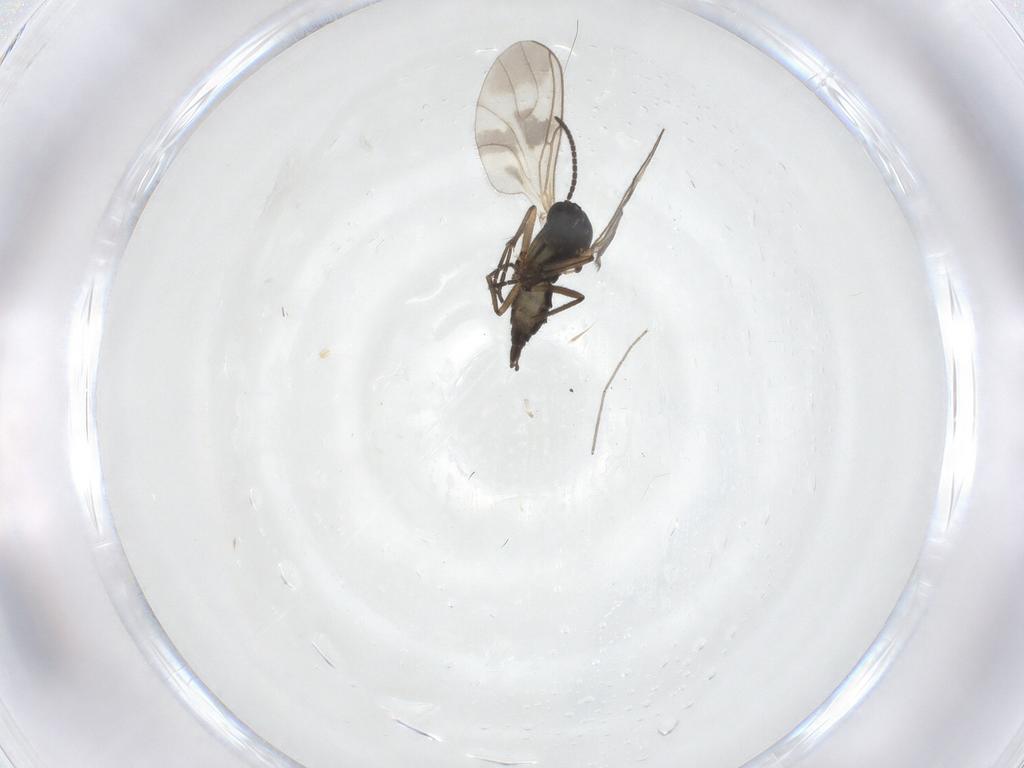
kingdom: Animalia
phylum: Arthropoda
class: Insecta
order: Diptera
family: Sciaridae
